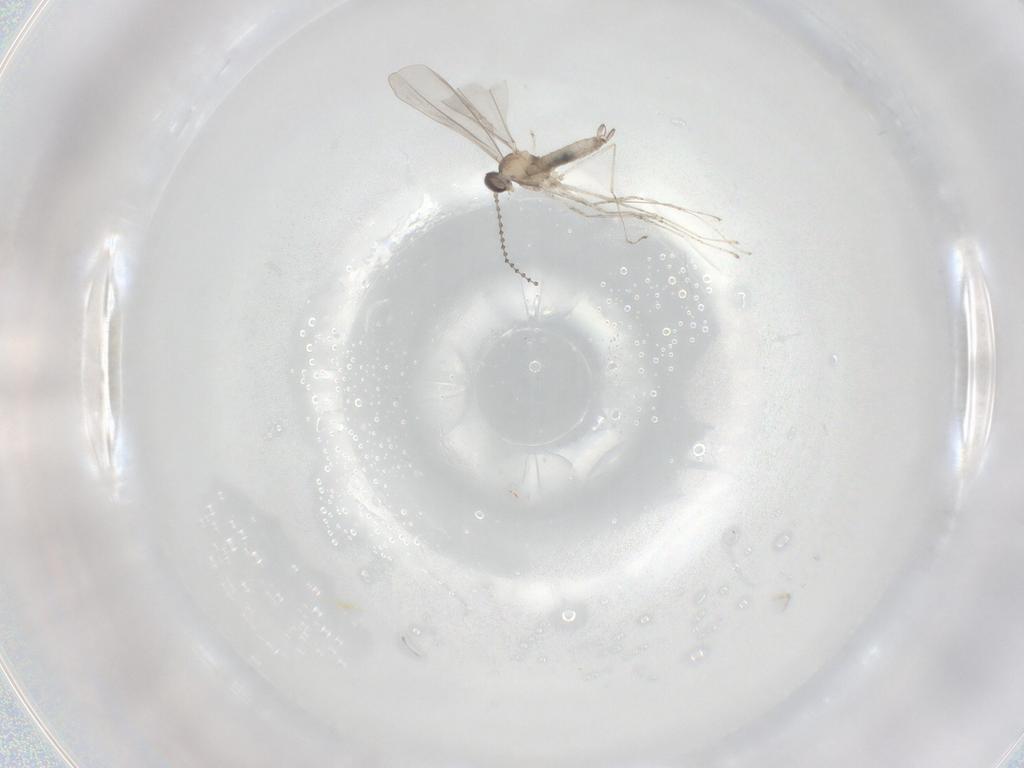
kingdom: Animalia
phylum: Arthropoda
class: Insecta
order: Diptera
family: Cecidomyiidae
